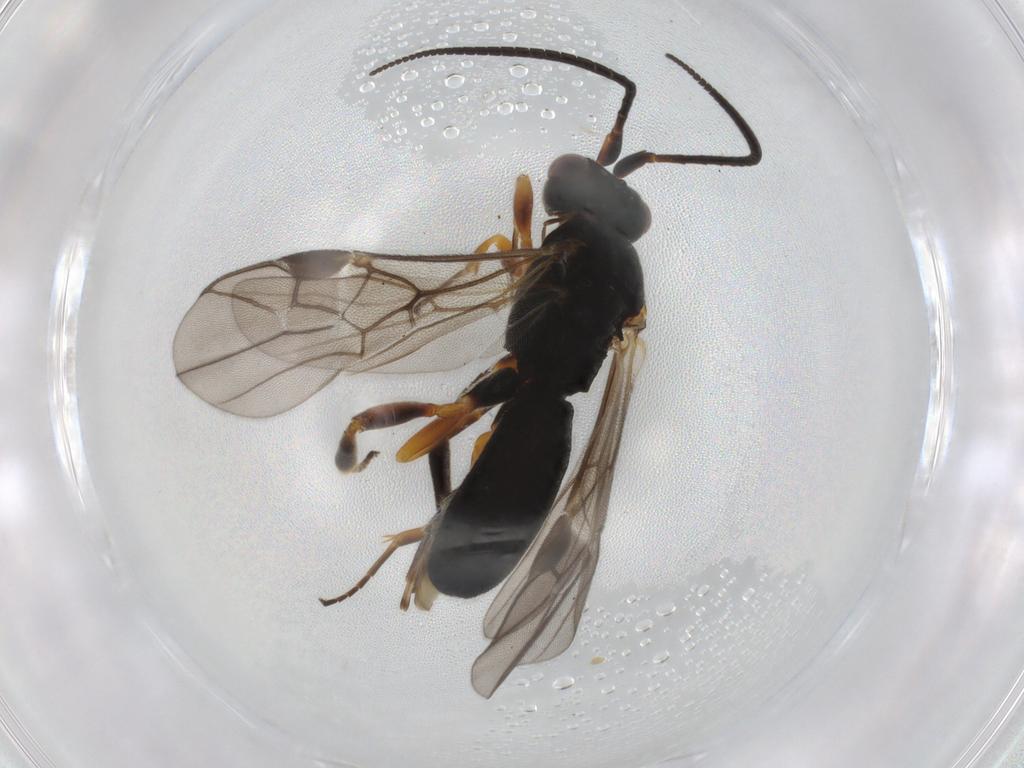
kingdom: Animalia
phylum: Arthropoda
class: Insecta
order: Hymenoptera
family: Braconidae
